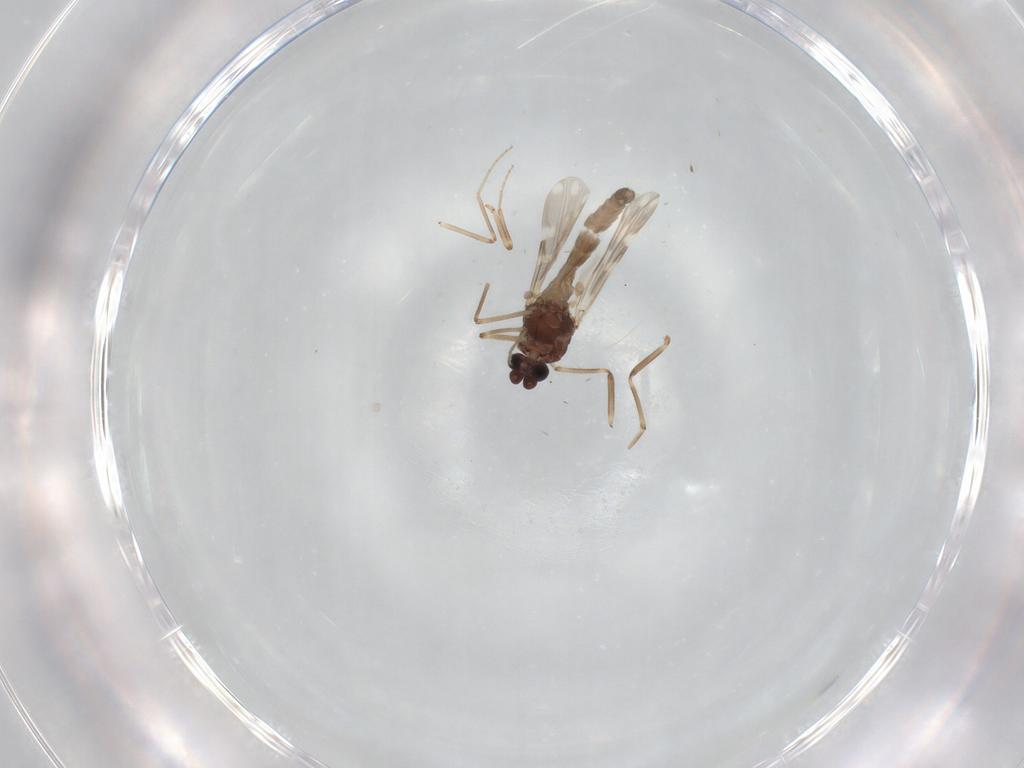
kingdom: Animalia
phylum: Arthropoda
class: Insecta
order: Diptera
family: Ceratopogonidae
